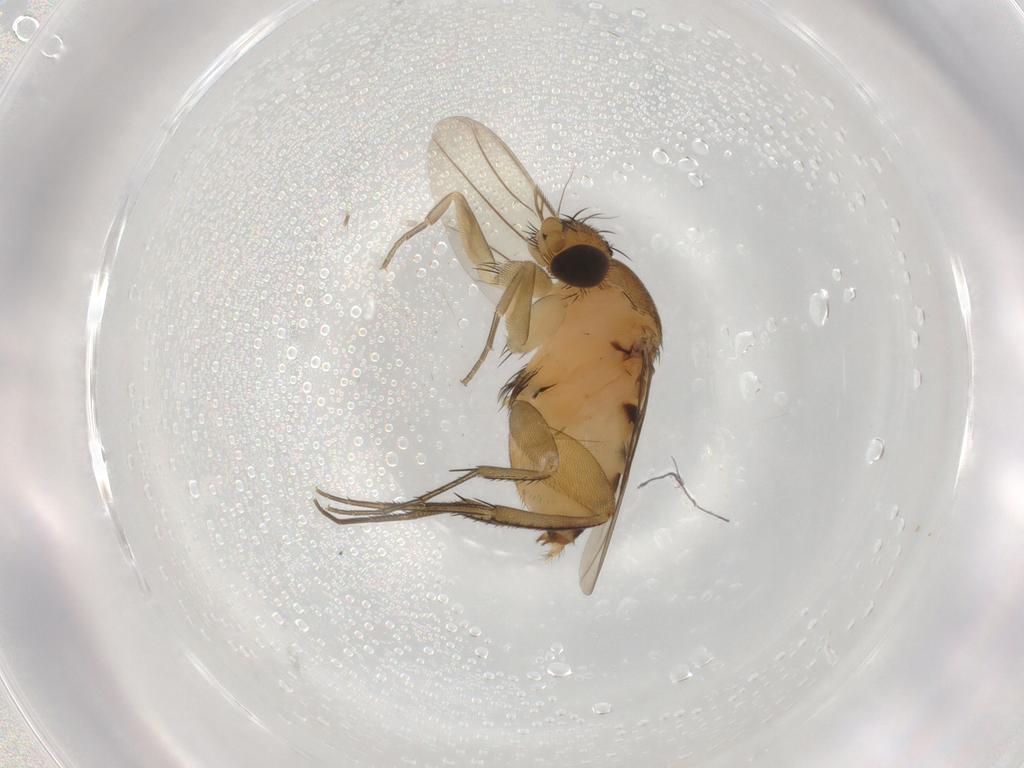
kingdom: Animalia
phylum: Arthropoda
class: Insecta
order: Diptera
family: Phoridae
